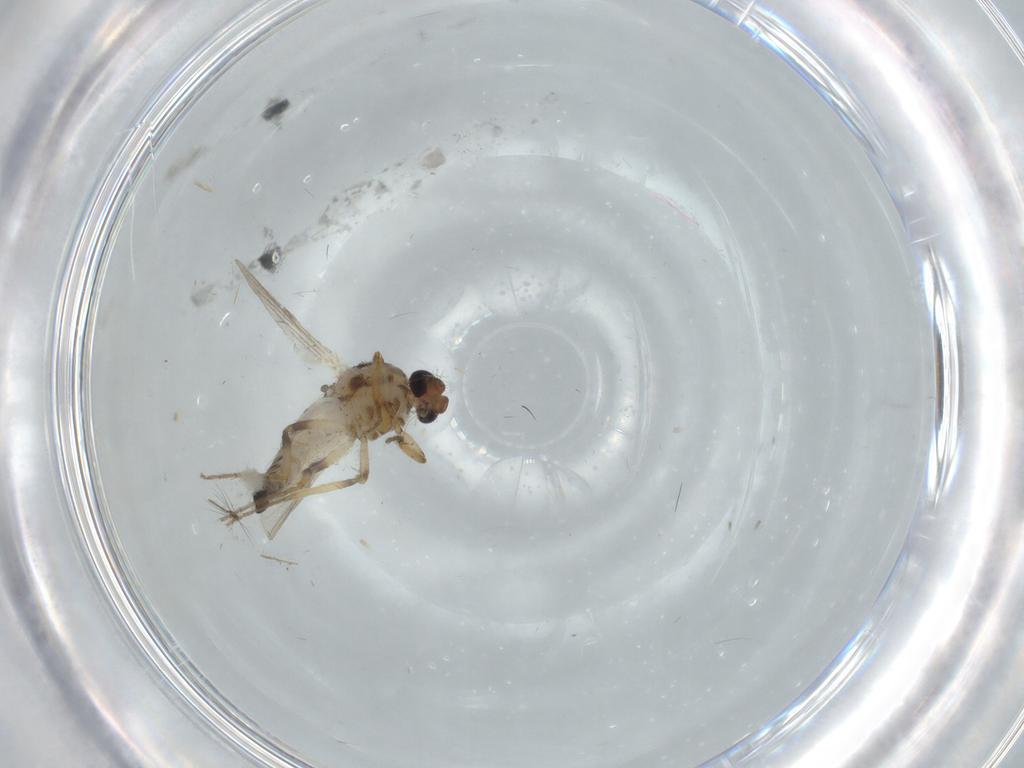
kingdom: Animalia
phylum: Arthropoda
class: Insecta
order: Diptera
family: Ceratopogonidae
